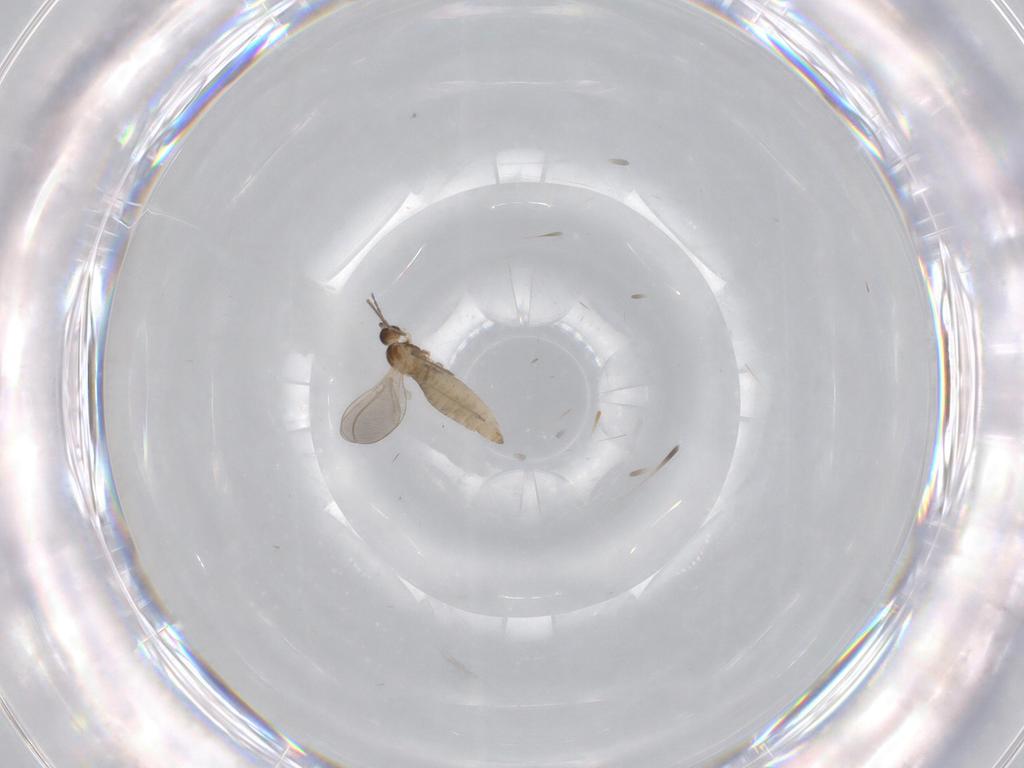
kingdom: Animalia
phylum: Arthropoda
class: Insecta
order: Diptera
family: Cecidomyiidae
